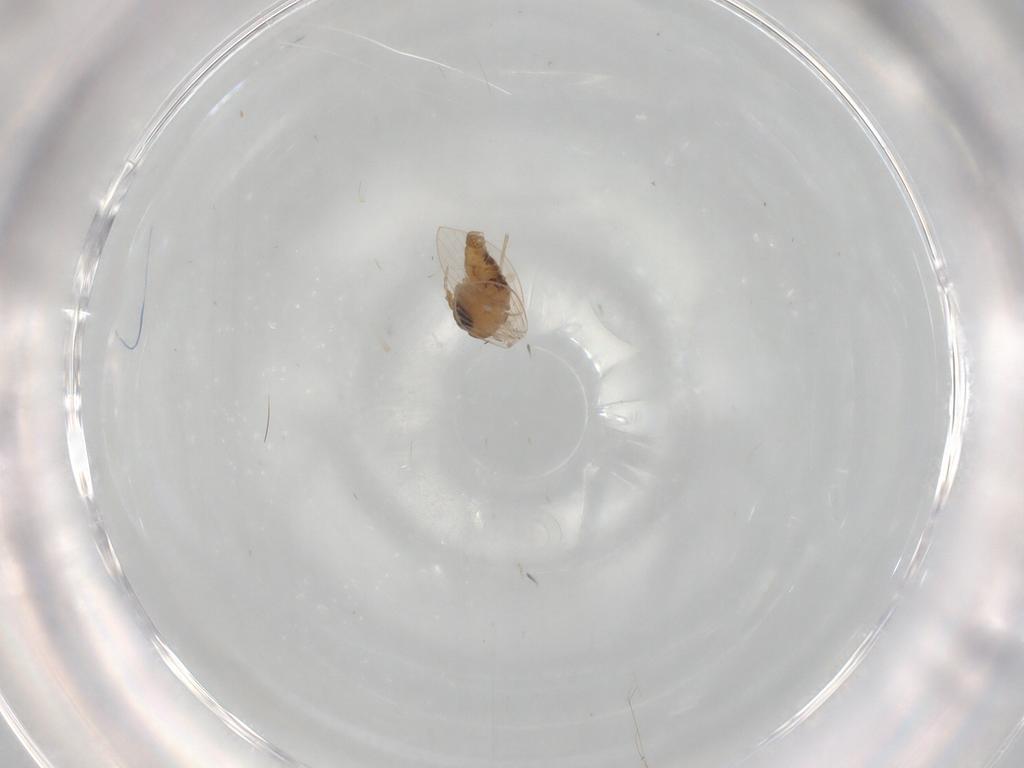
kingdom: Animalia
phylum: Arthropoda
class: Insecta
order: Diptera
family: Psychodidae
